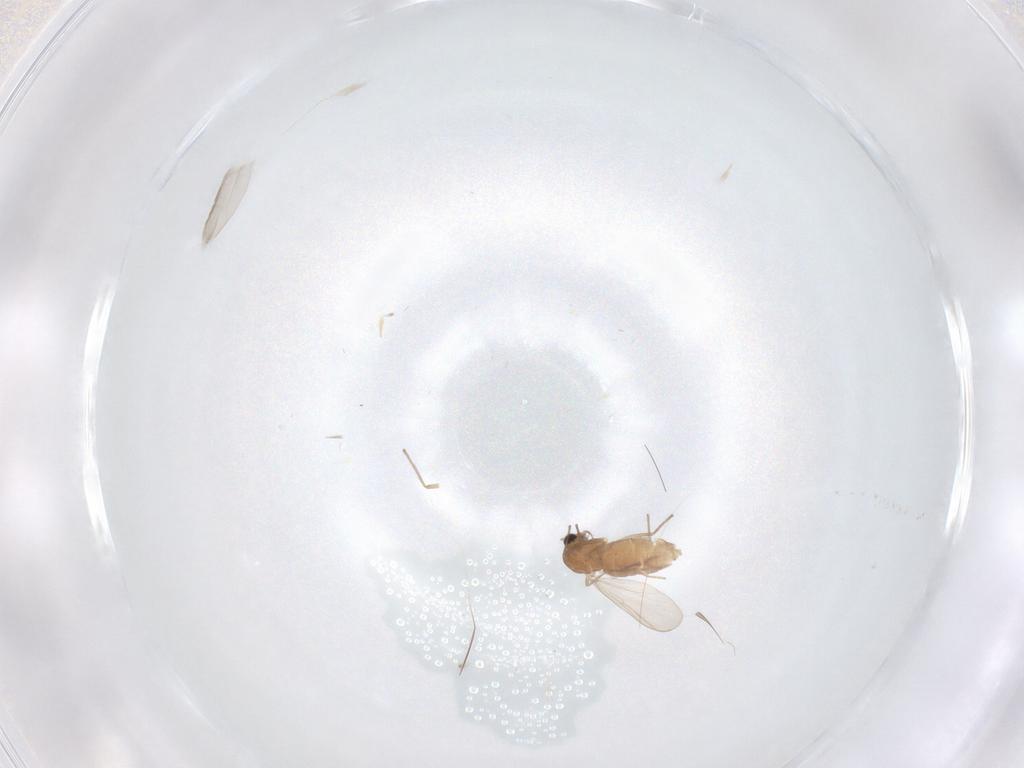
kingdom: Animalia
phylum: Arthropoda
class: Insecta
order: Diptera
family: Chironomidae
